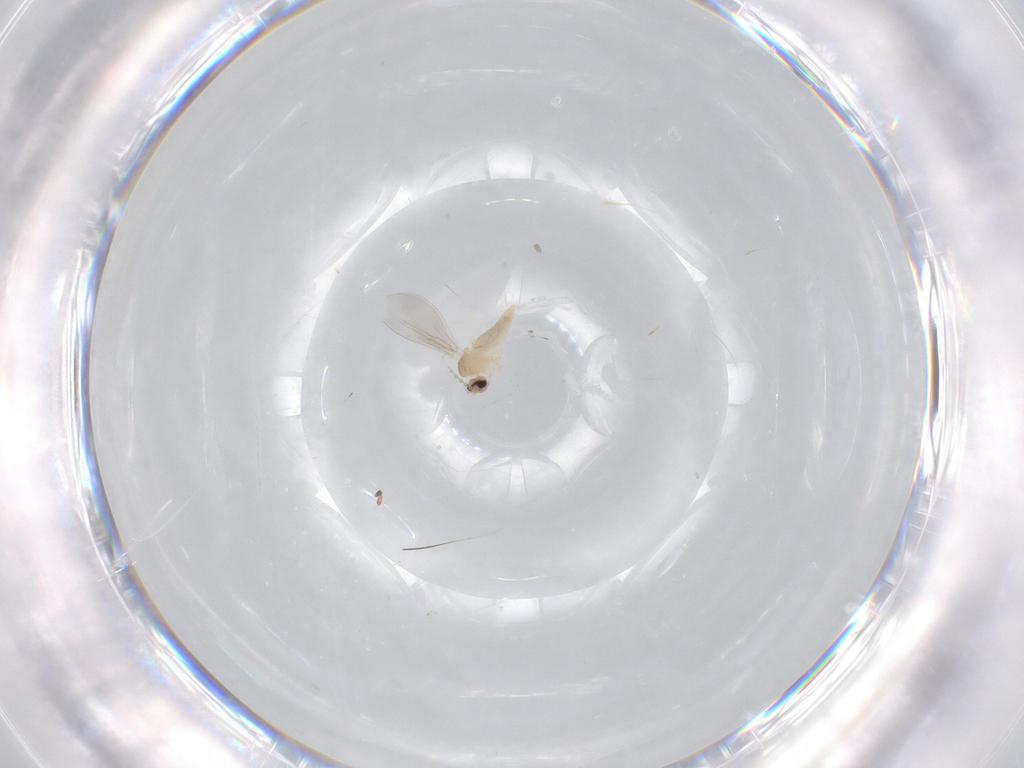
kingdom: Animalia
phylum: Arthropoda
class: Insecta
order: Diptera
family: Cecidomyiidae
